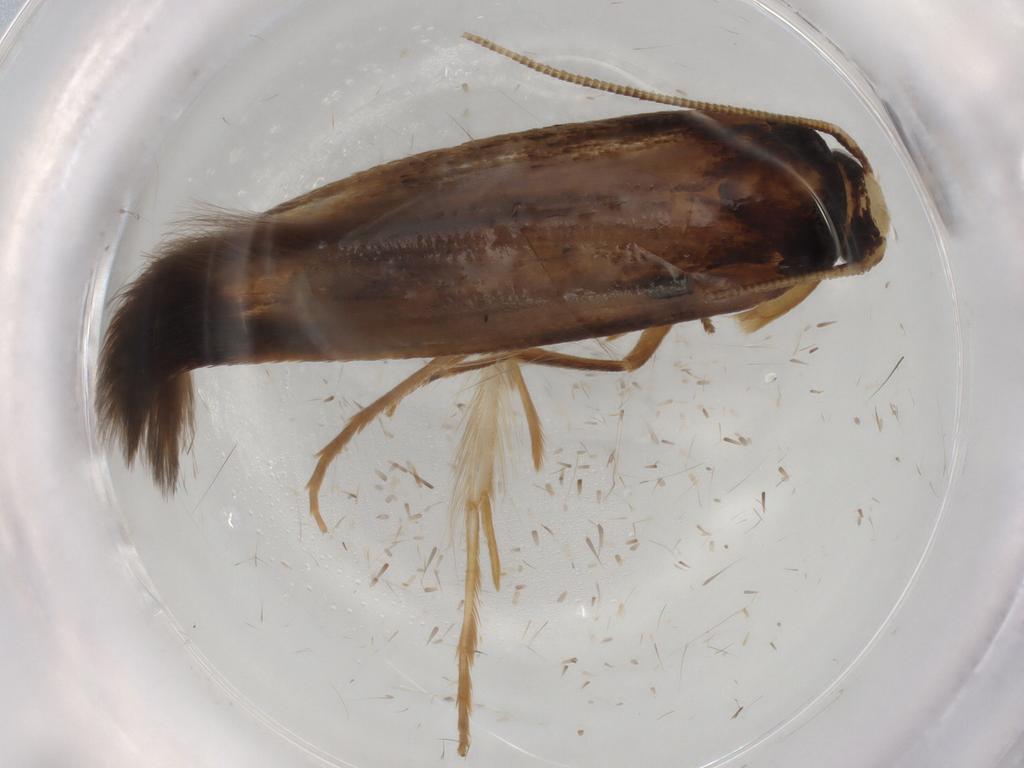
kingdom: Animalia
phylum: Arthropoda
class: Insecta
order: Lepidoptera
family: Tineidae
